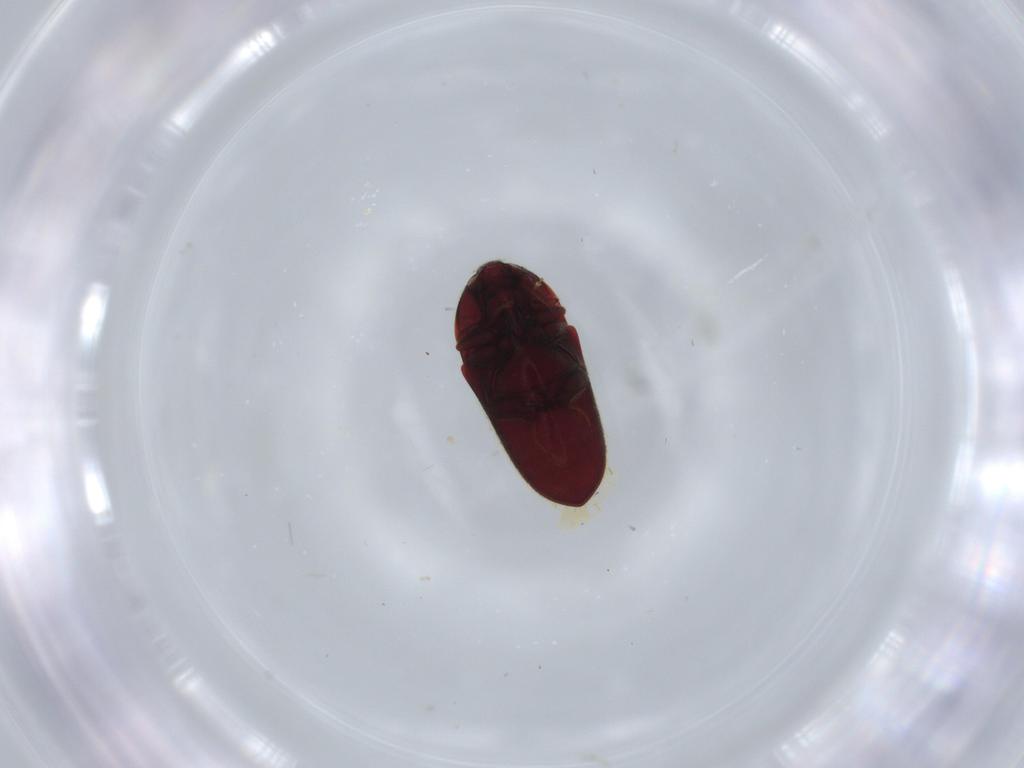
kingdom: Animalia
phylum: Arthropoda
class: Insecta
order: Coleoptera
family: Throscidae
